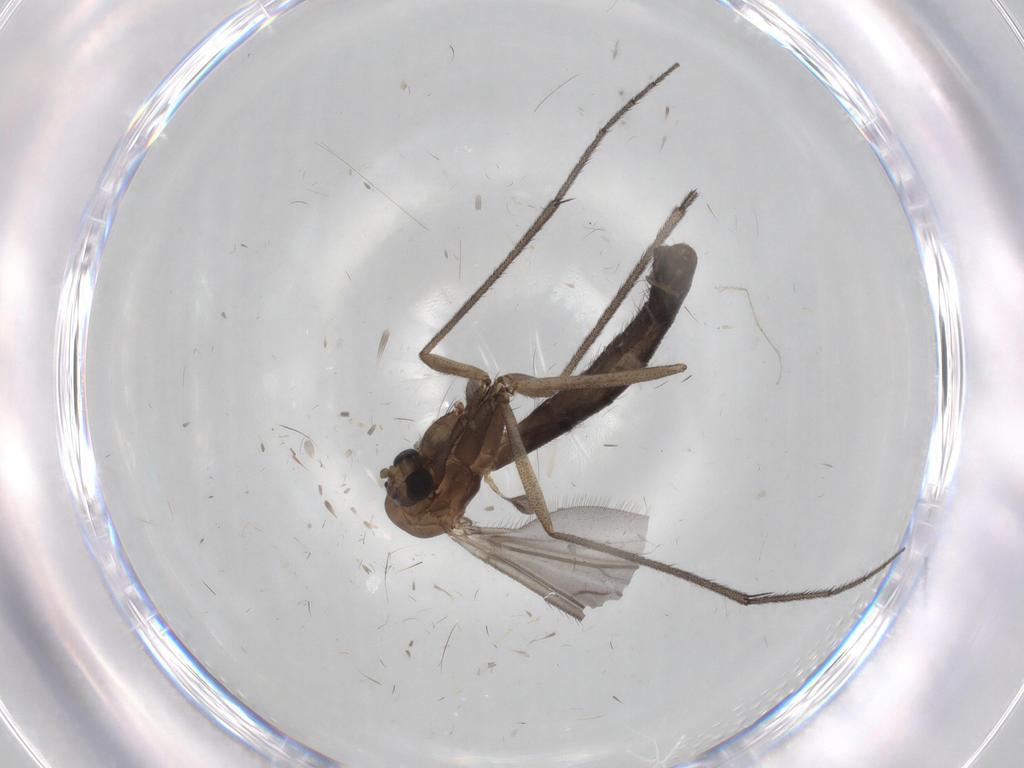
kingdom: Animalia
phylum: Arthropoda
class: Insecta
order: Diptera
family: Ditomyiidae
